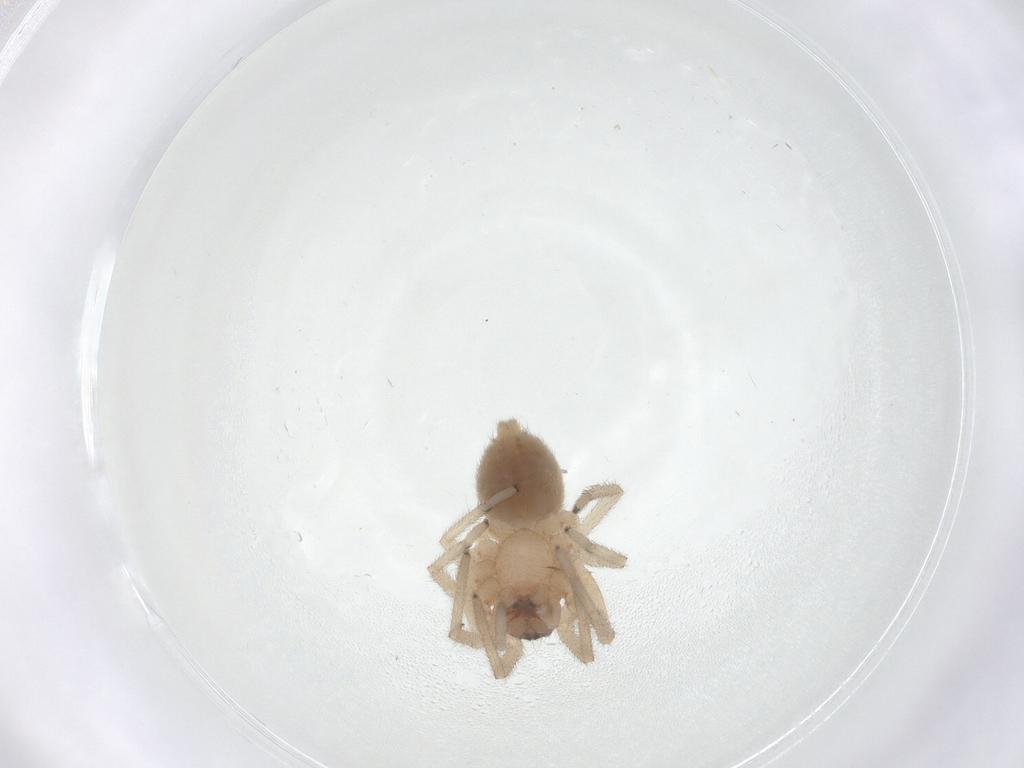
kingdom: Animalia
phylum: Arthropoda
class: Arachnida
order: Araneae
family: Trachelidae
